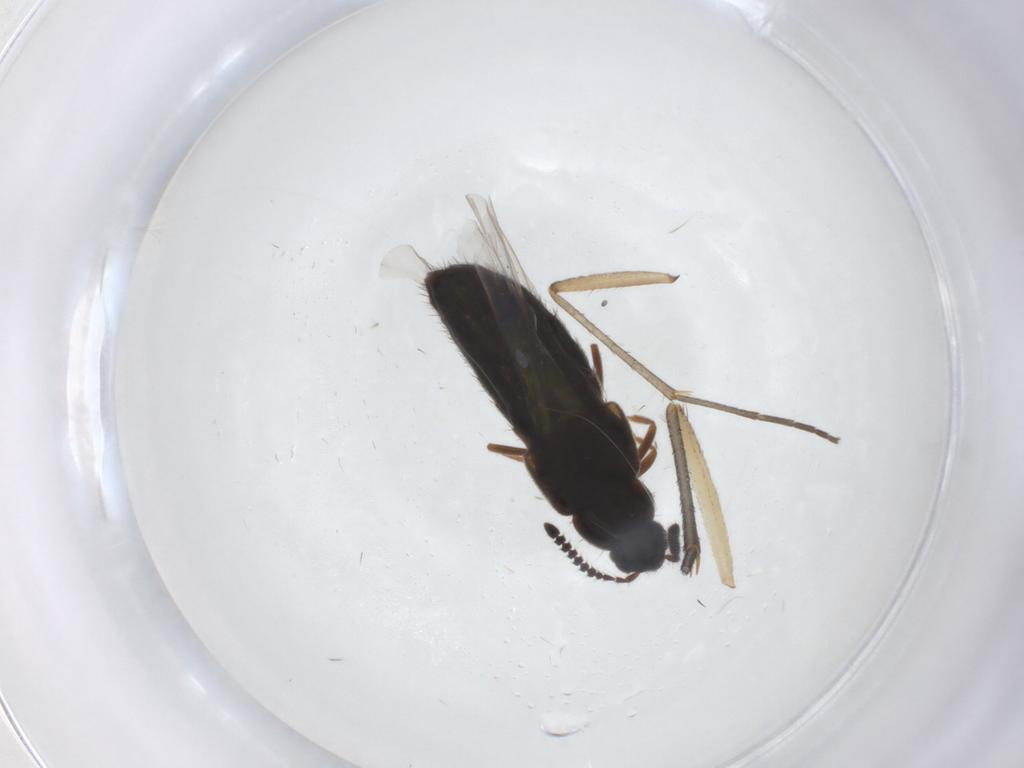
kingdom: Animalia
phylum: Arthropoda
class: Insecta
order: Diptera
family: Mycetophilidae
